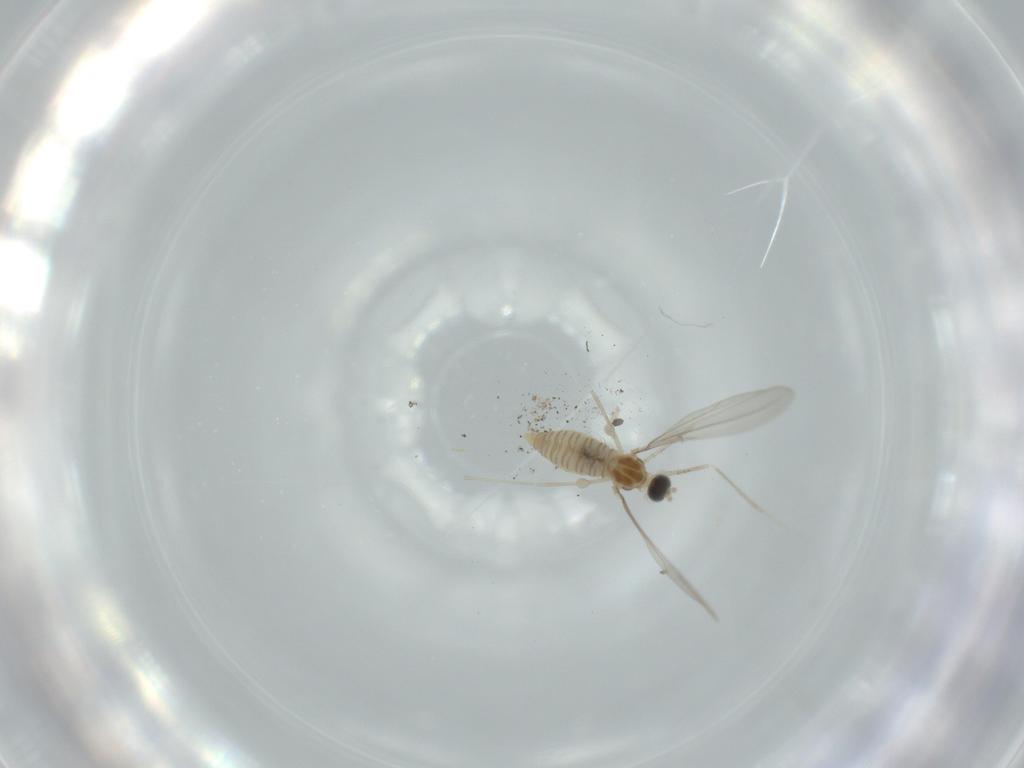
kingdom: Animalia
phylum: Arthropoda
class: Insecta
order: Diptera
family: Cecidomyiidae
